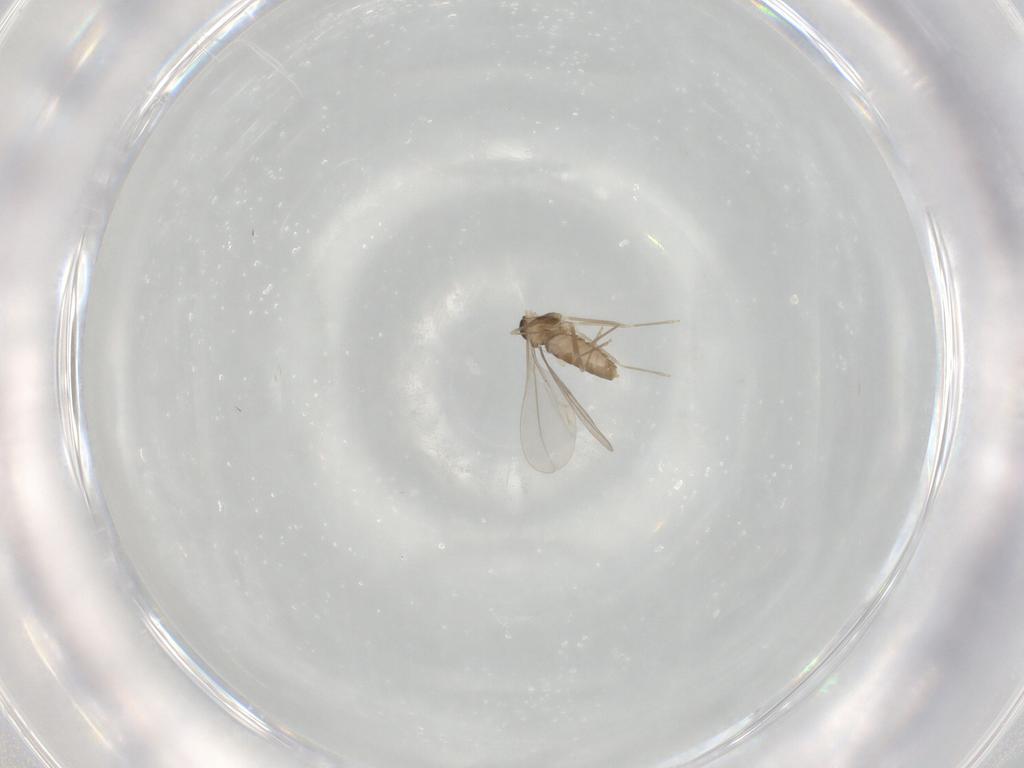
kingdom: Animalia
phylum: Arthropoda
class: Insecta
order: Diptera
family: Cecidomyiidae
